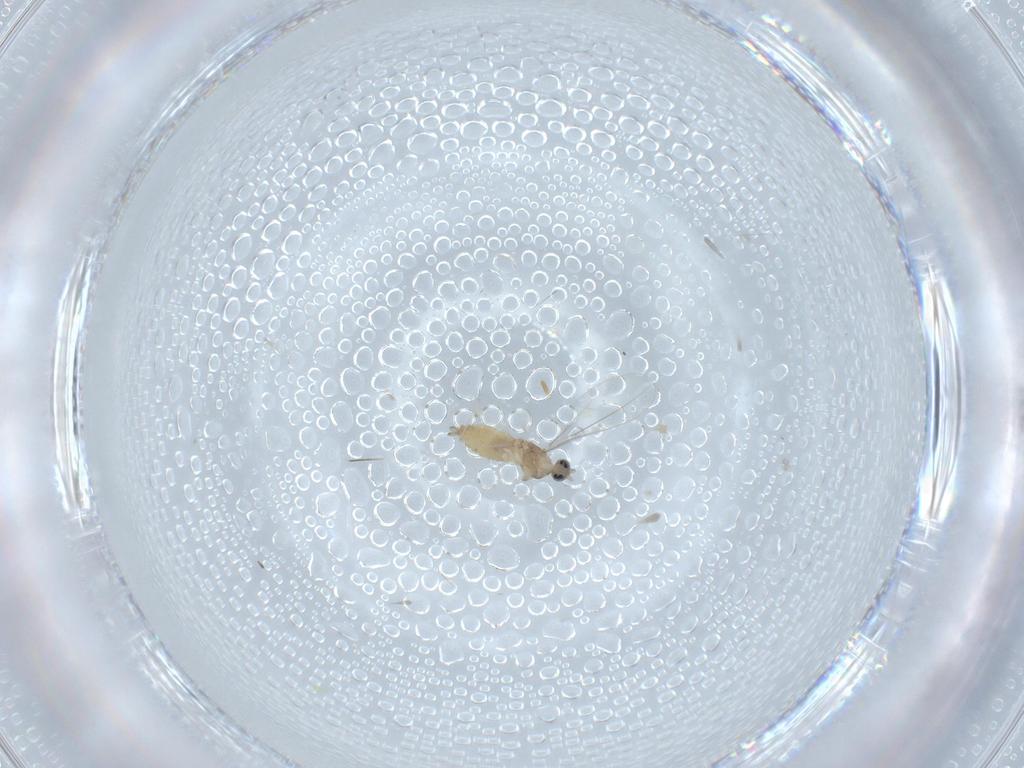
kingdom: Animalia
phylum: Arthropoda
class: Insecta
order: Diptera
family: Cecidomyiidae
